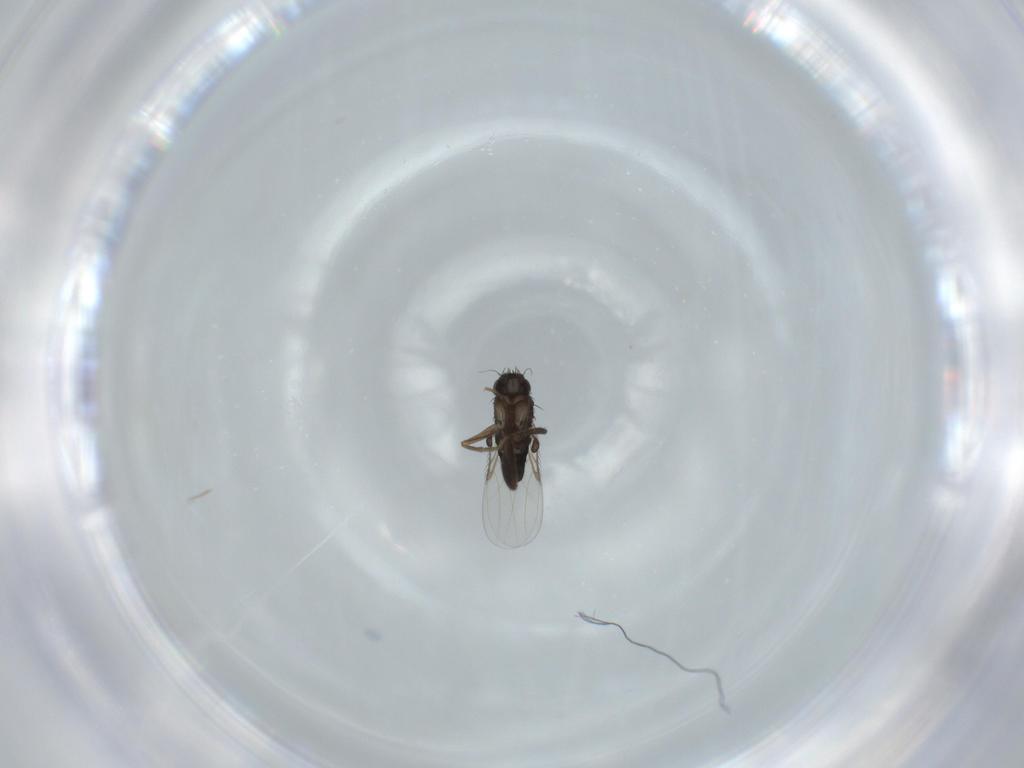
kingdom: Animalia
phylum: Arthropoda
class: Insecta
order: Diptera
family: Phoridae
